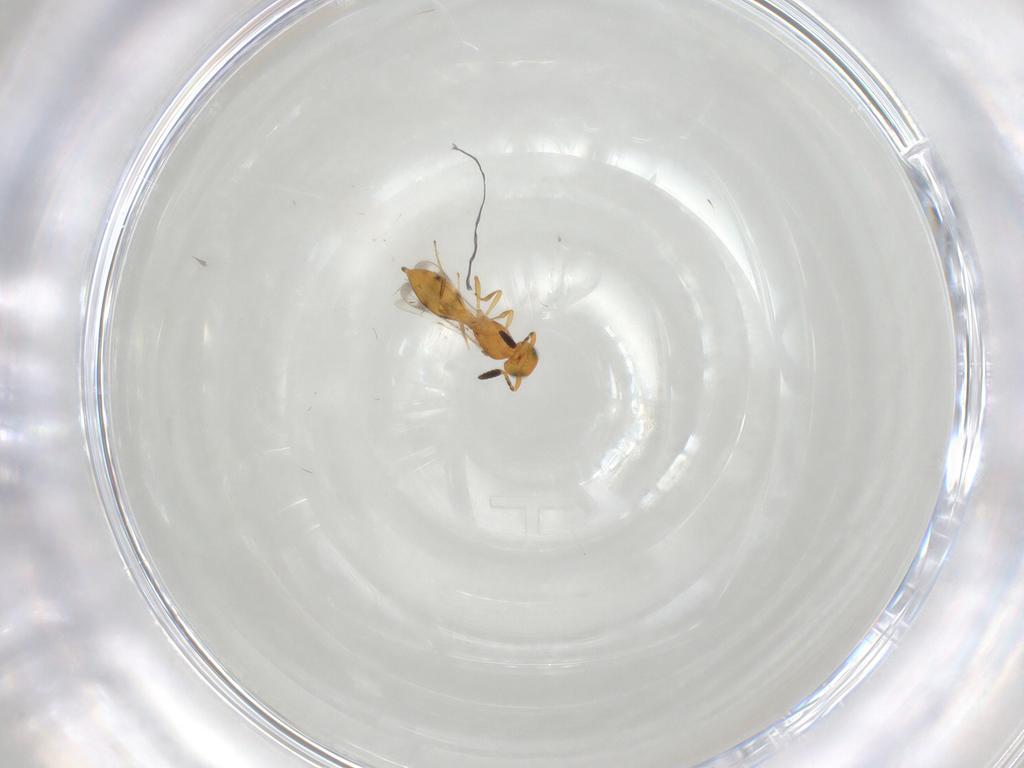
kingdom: Animalia
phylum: Arthropoda
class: Insecta
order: Hymenoptera
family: Scelionidae
